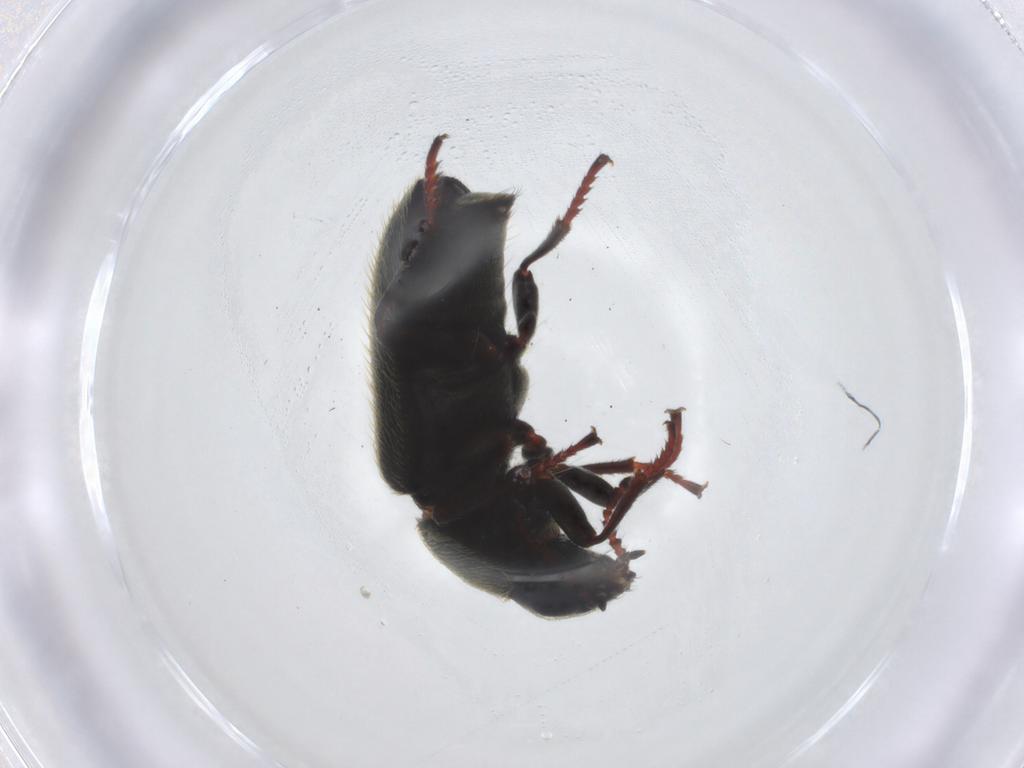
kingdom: Animalia
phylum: Arthropoda
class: Insecta
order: Coleoptera
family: Melyridae
